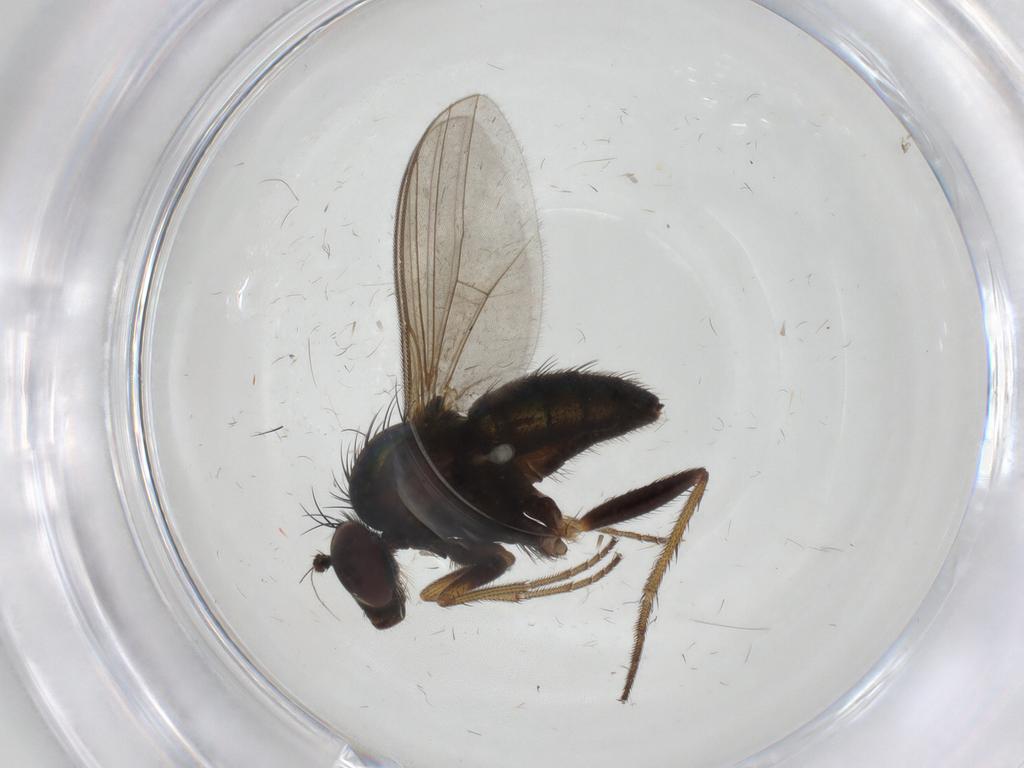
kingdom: Animalia
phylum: Arthropoda
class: Insecta
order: Diptera
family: Dolichopodidae
